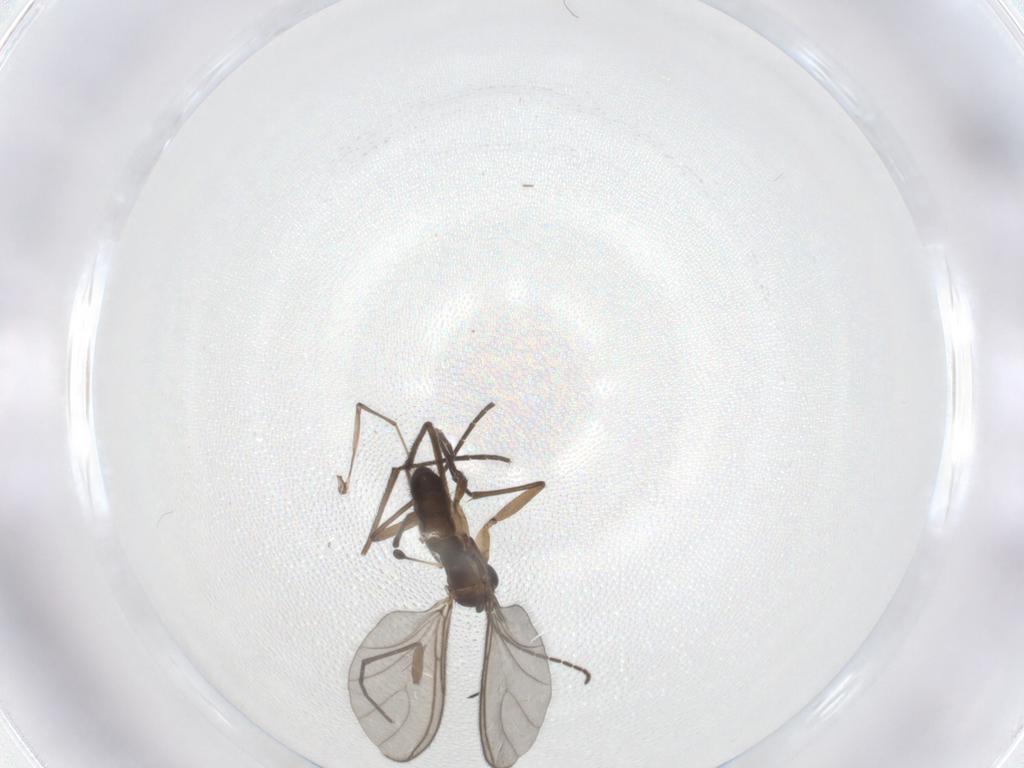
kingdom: Animalia
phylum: Arthropoda
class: Insecta
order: Diptera
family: Sciaridae
